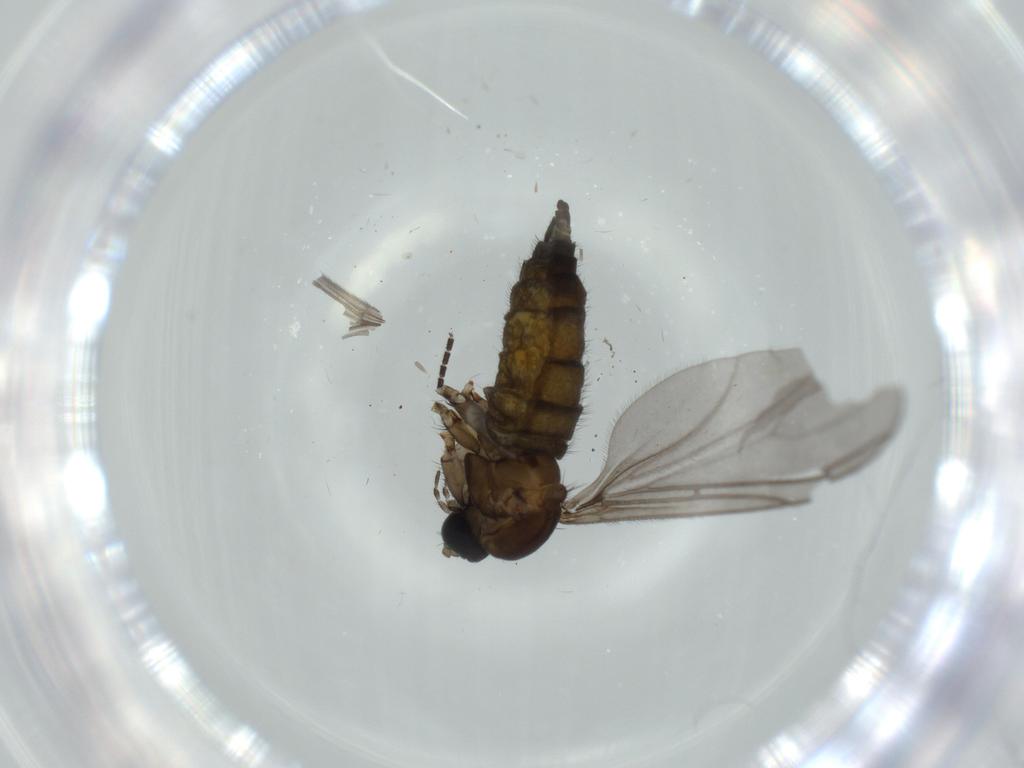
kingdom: Animalia
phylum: Arthropoda
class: Insecta
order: Diptera
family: Sciaridae
